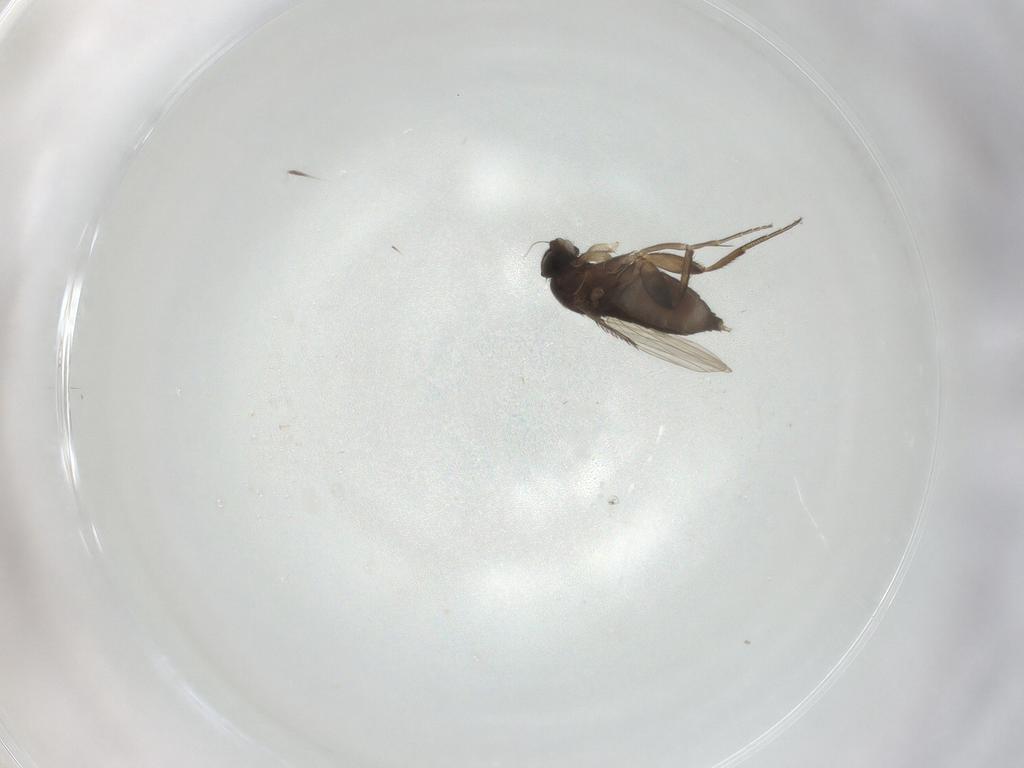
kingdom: Animalia
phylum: Arthropoda
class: Insecta
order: Diptera
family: Phoridae
